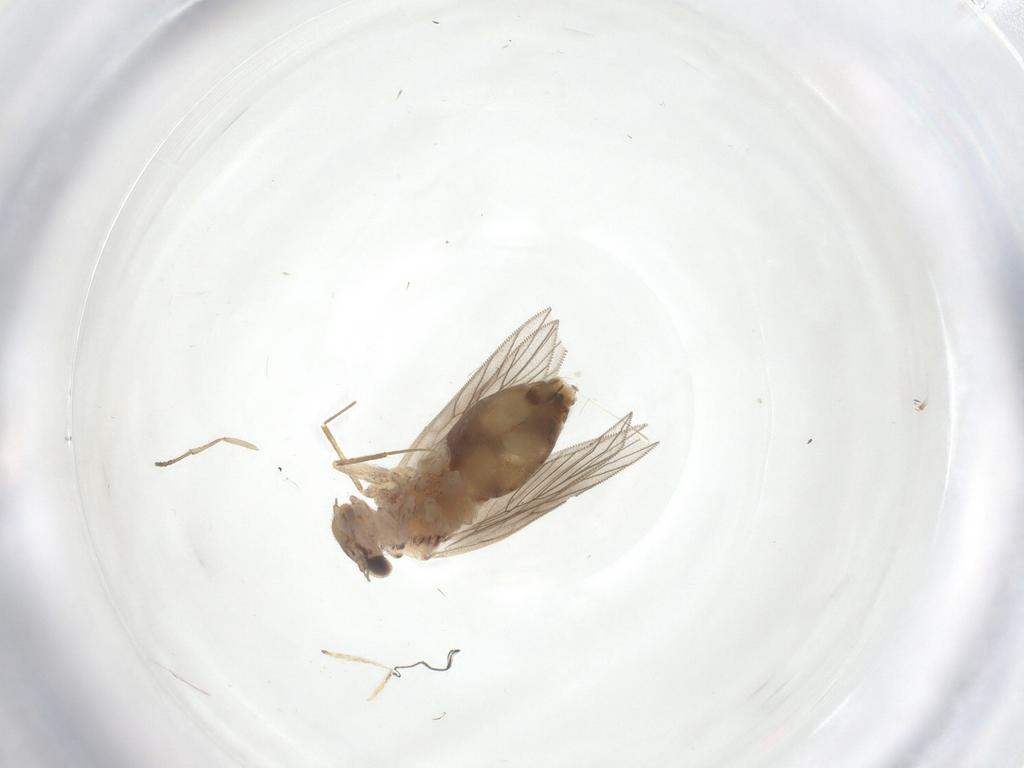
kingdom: Animalia
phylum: Arthropoda
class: Insecta
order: Psocodea
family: Lepidopsocidae
